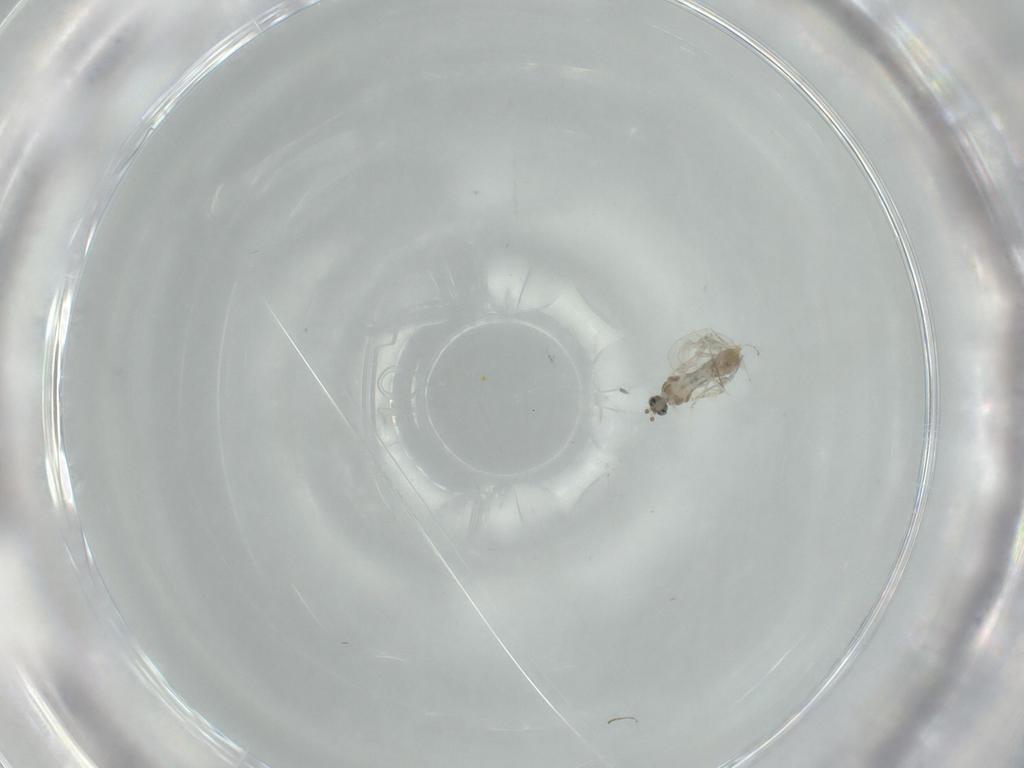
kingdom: Animalia
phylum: Arthropoda
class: Insecta
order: Diptera
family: Cecidomyiidae
